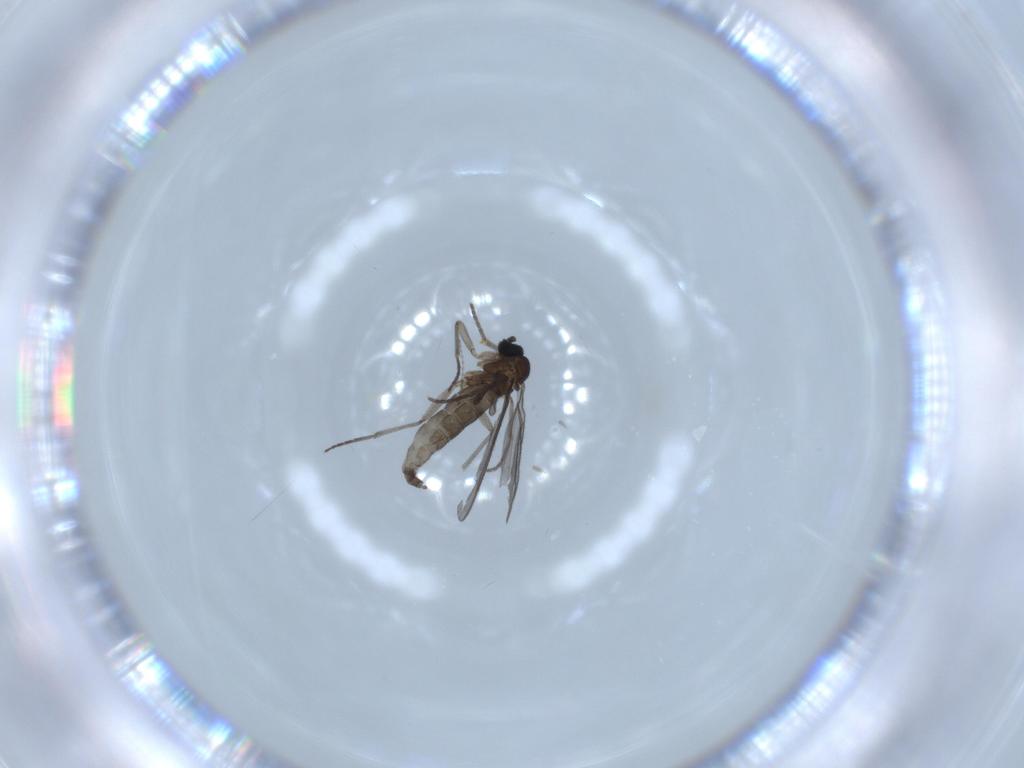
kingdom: Animalia
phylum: Arthropoda
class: Insecta
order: Diptera
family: Cecidomyiidae
